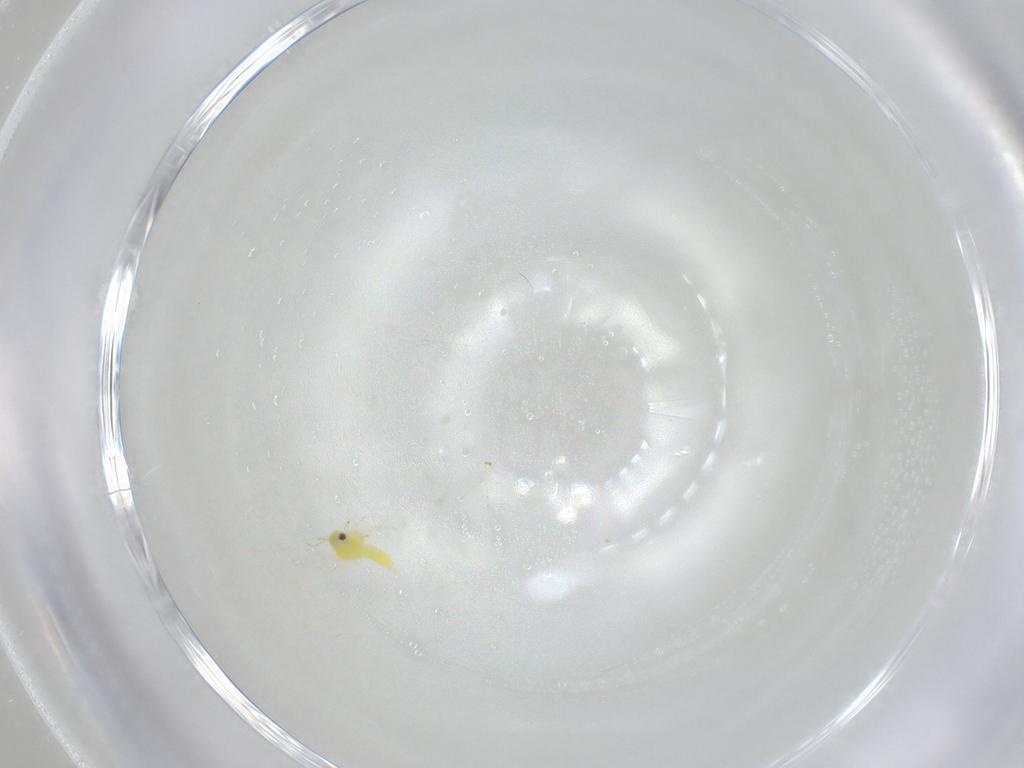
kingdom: Animalia
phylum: Arthropoda
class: Insecta
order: Hemiptera
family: Aleyrodidae
